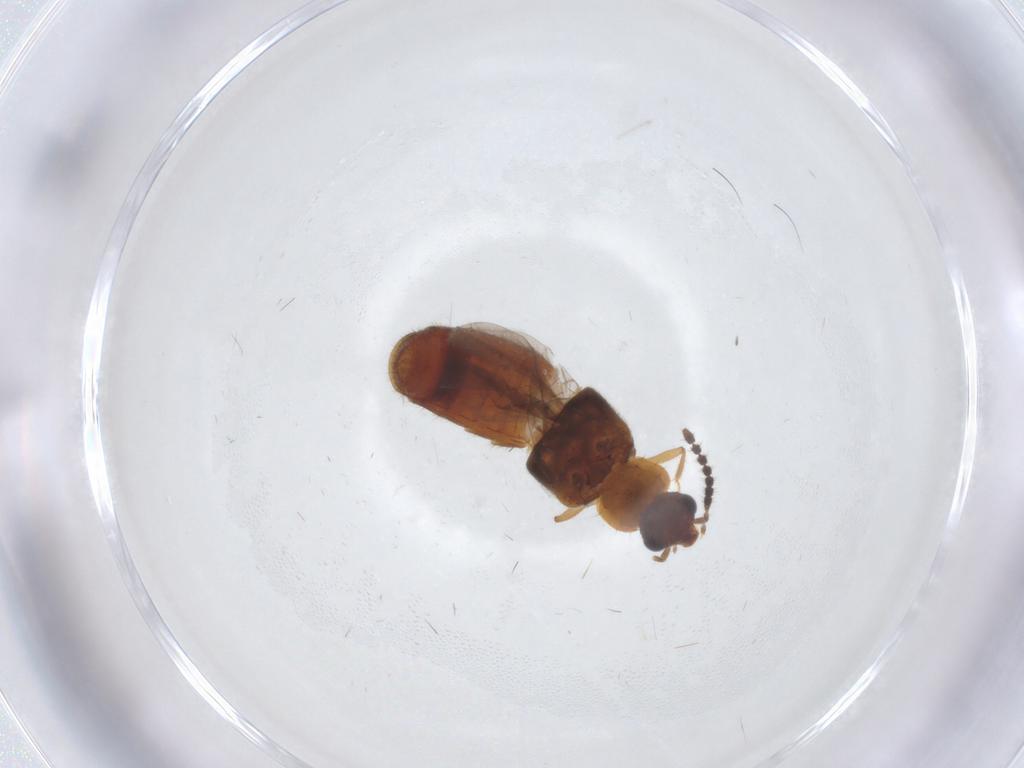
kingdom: Animalia
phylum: Arthropoda
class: Insecta
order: Coleoptera
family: Staphylinidae
